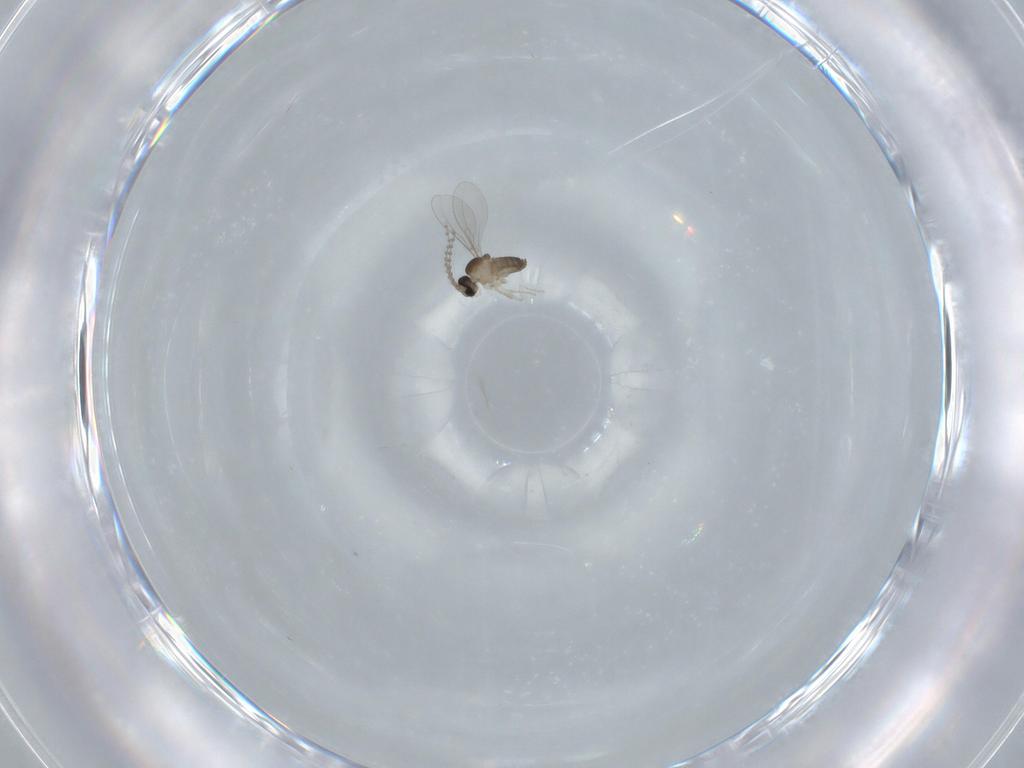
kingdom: Animalia
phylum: Arthropoda
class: Insecta
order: Diptera
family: Cecidomyiidae
